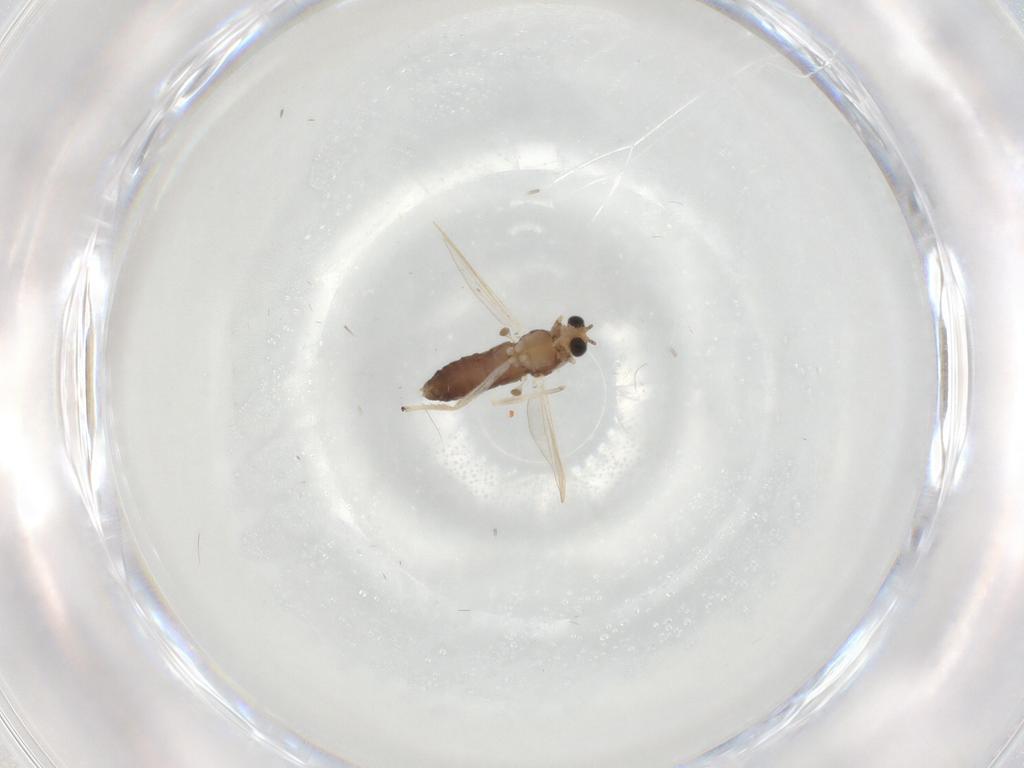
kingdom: Animalia
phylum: Arthropoda
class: Insecta
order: Diptera
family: Chironomidae
